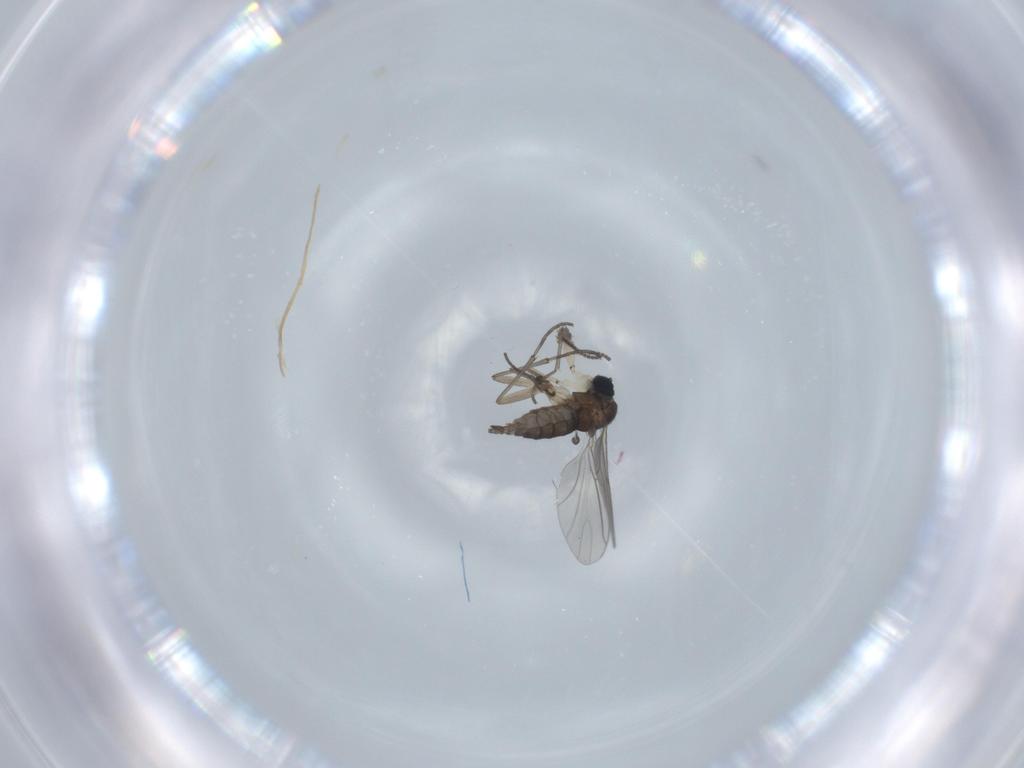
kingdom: Animalia
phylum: Arthropoda
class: Insecta
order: Diptera
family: Sciaridae
